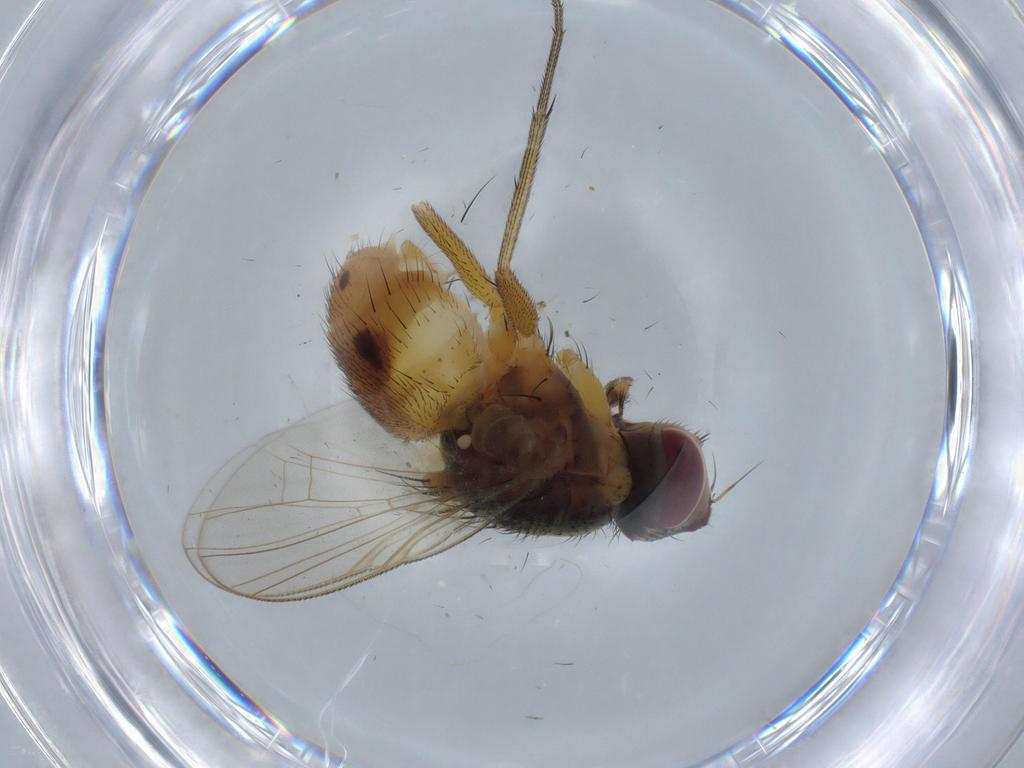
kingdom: Animalia
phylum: Arthropoda
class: Insecta
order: Diptera
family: Muscidae
